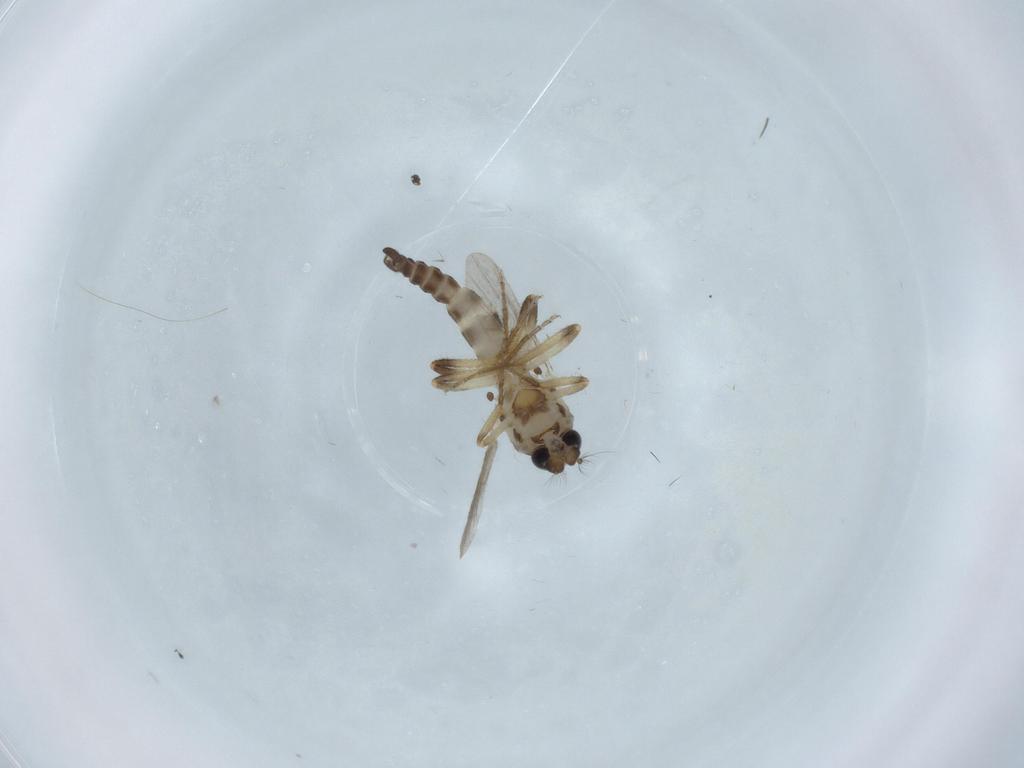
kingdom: Animalia
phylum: Arthropoda
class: Insecta
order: Diptera
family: Ceratopogonidae
